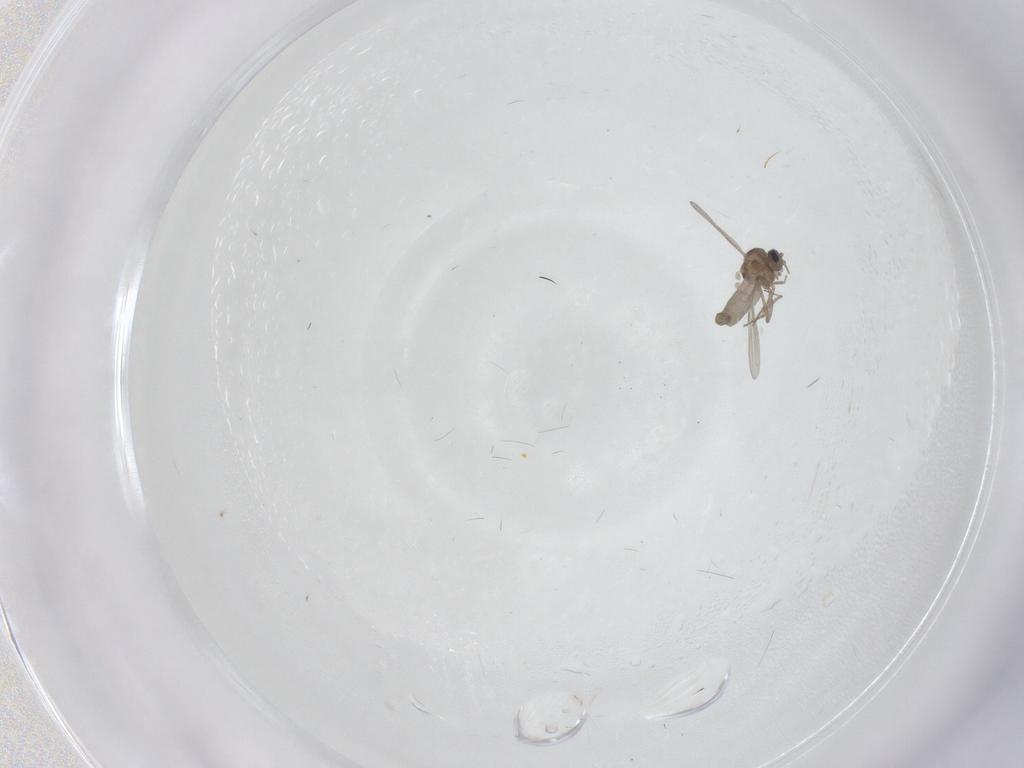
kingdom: Animalia
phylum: Arthropoda
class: Insecta
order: Diptera
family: Ceratopogonidae
